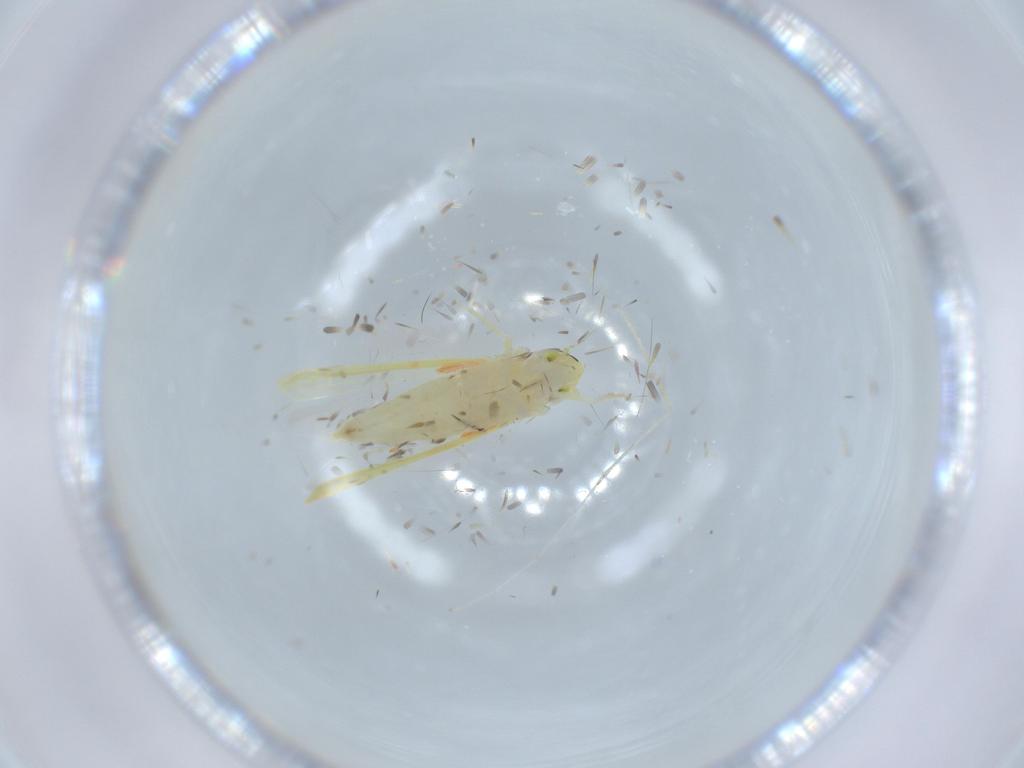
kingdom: Animalia
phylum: Arthropoda
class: Insecta
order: Hemiptera
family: Cicadellidae
